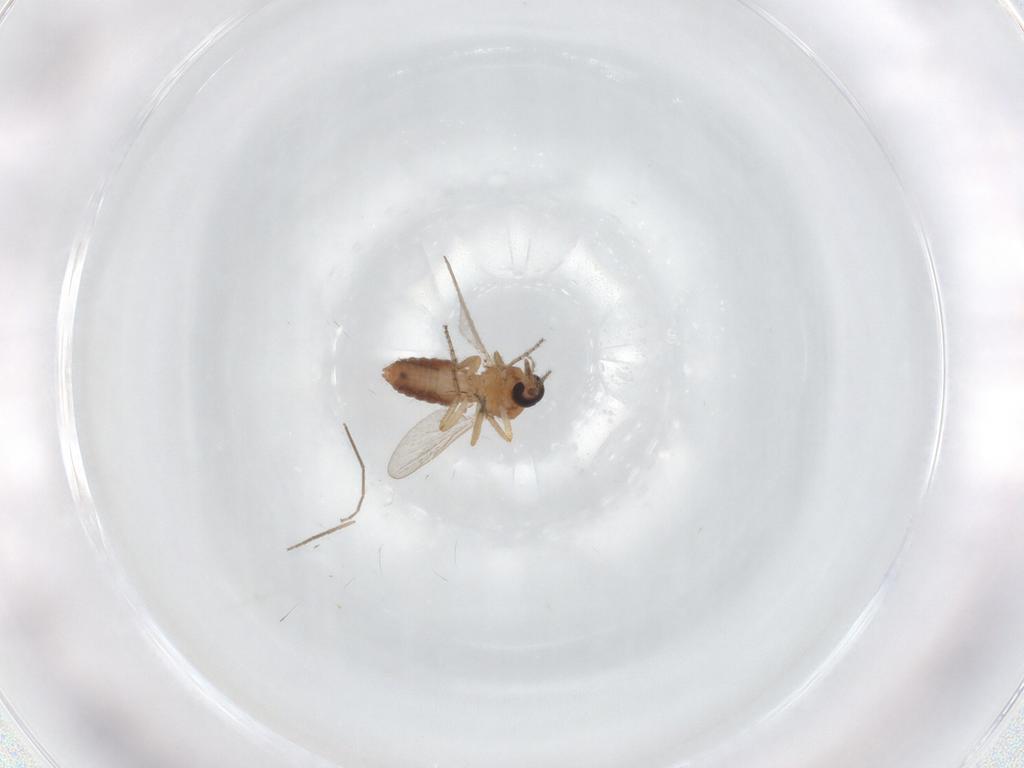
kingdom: Animalia
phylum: Arthropoda
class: Insecta
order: Diptera
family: Ceratopogonidae
